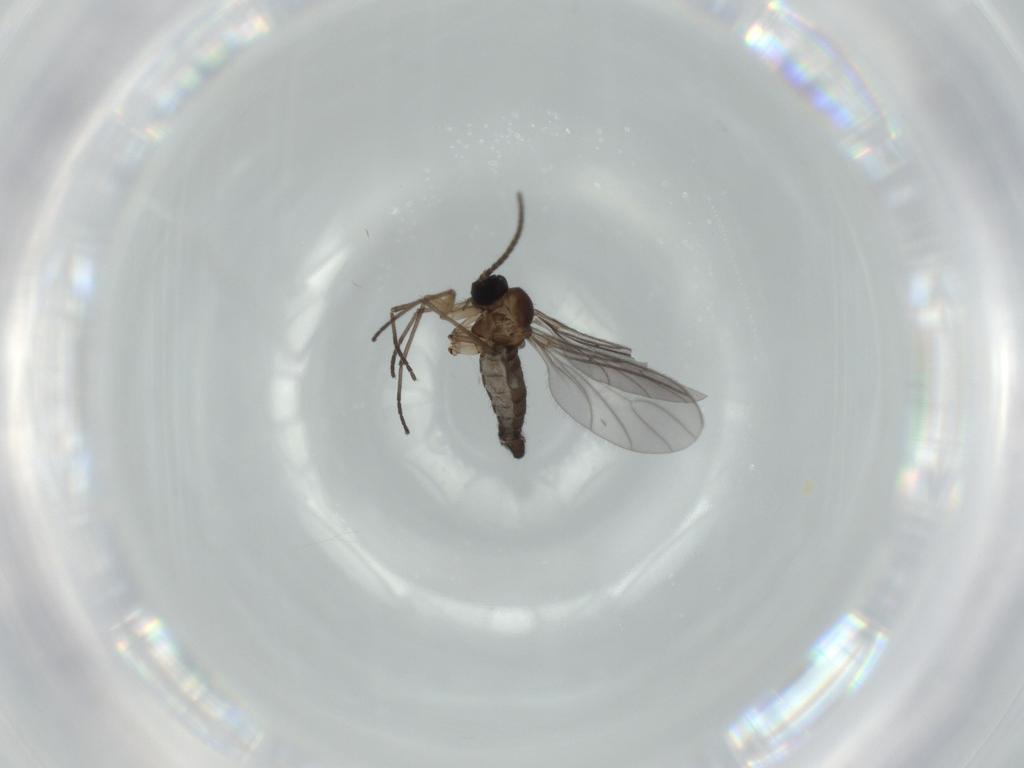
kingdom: Animalia
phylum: Arthropoda
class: Insecta
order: Diptera
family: Sciaridae
